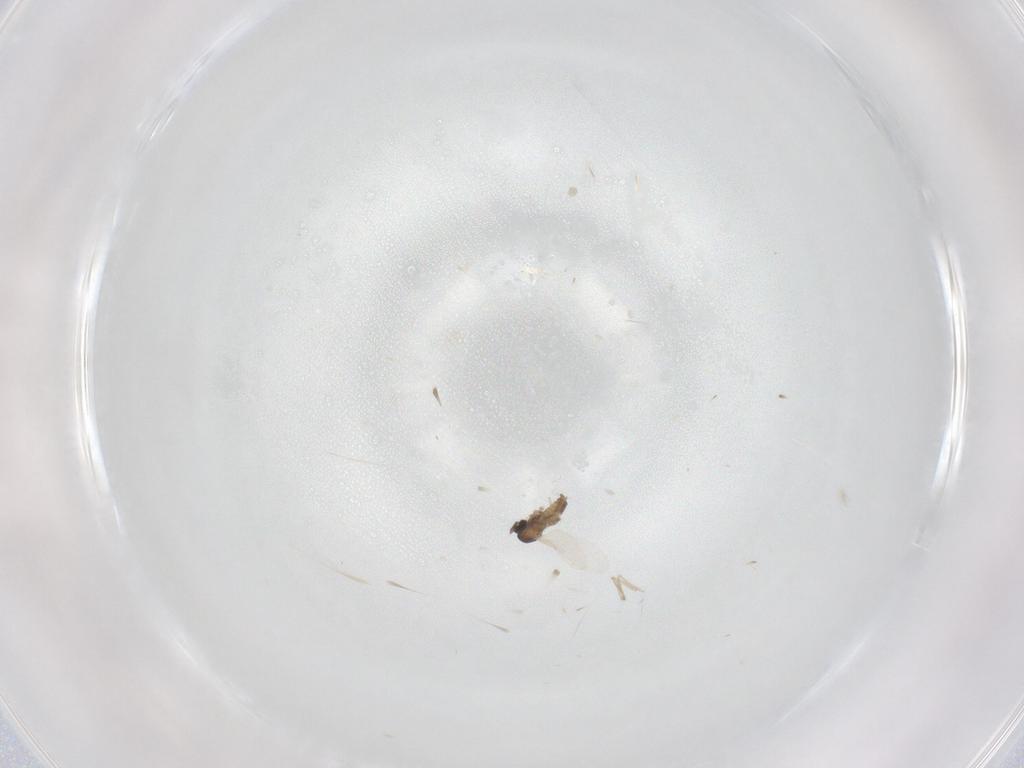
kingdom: Animalia
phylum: Arthropoda
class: Insecta
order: Diptera
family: Cecidomyiidae
